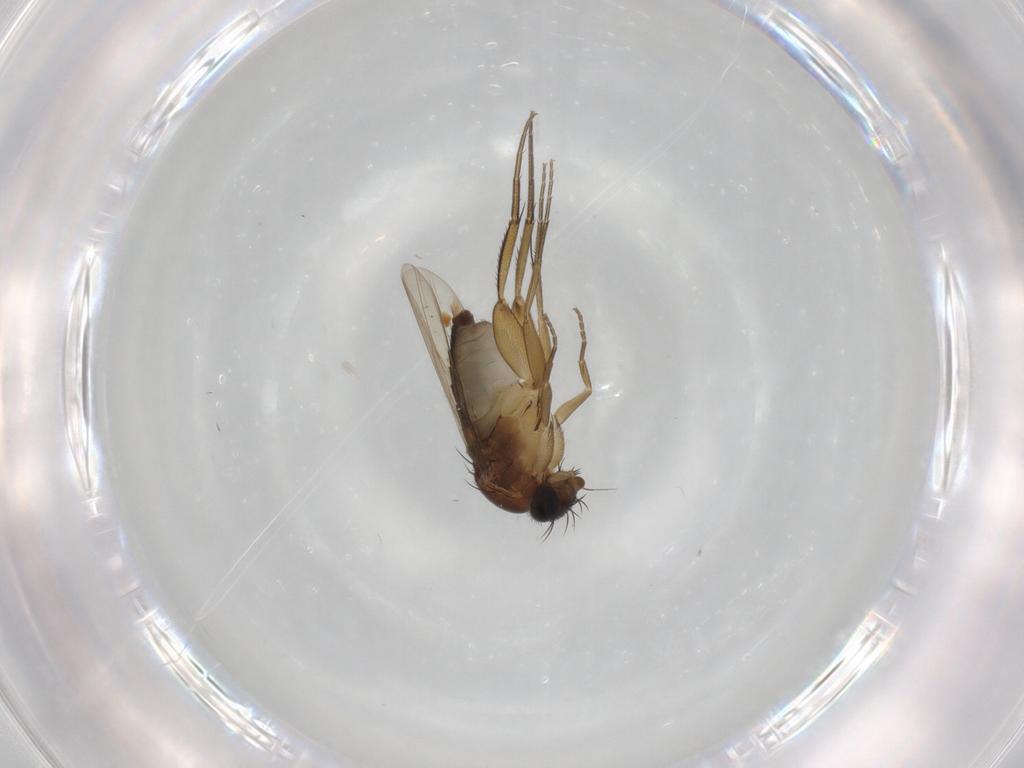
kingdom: Animalia
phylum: Arthropoda
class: Insecta
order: Diptera
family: Phoridae
